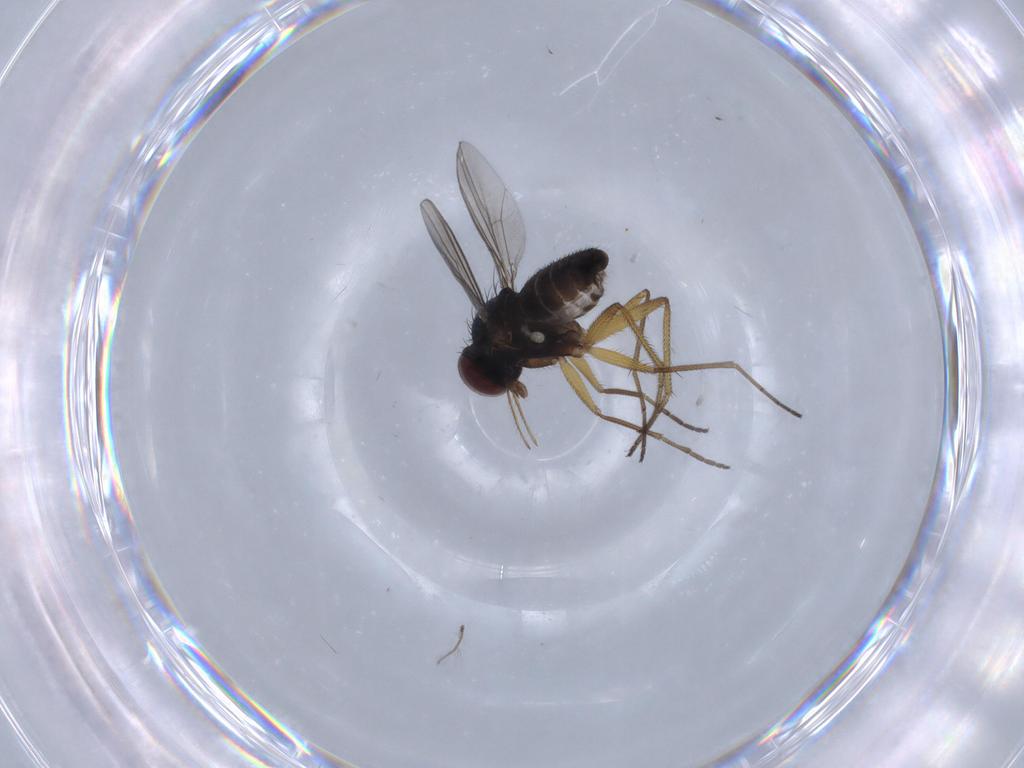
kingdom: Animalia
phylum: Arthropoda
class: Insecta
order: Diptera
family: Dolichopodidae
